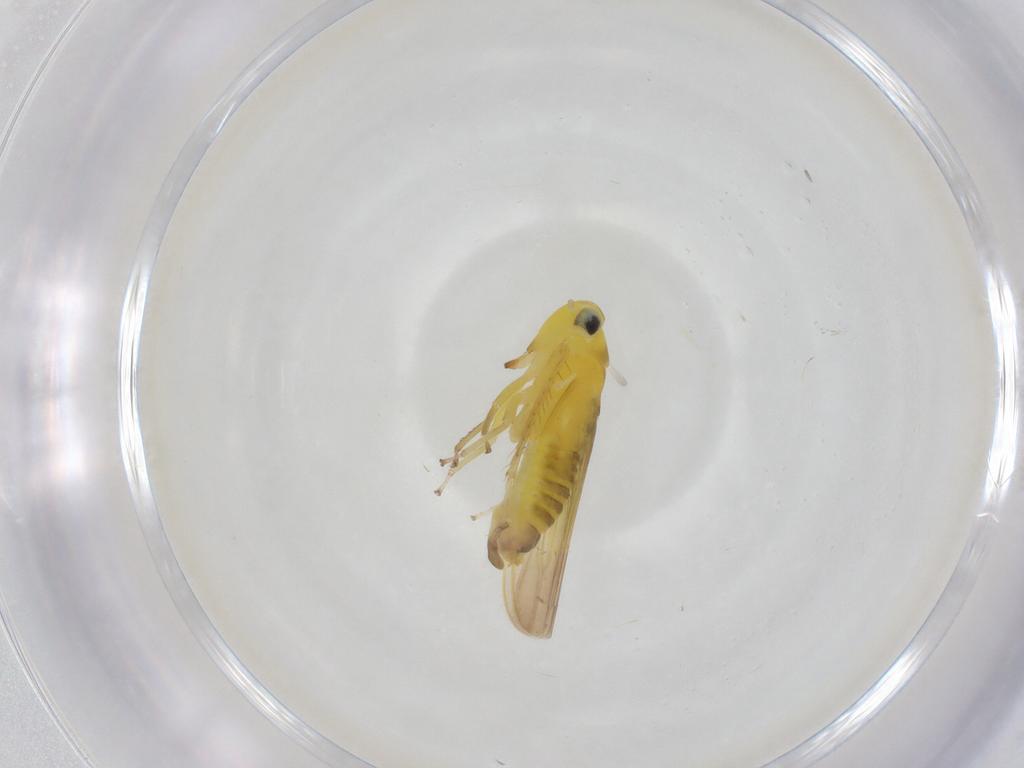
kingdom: Animalia
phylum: Arthropoda
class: Insecta
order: Hemiptera
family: Cicadellidae
